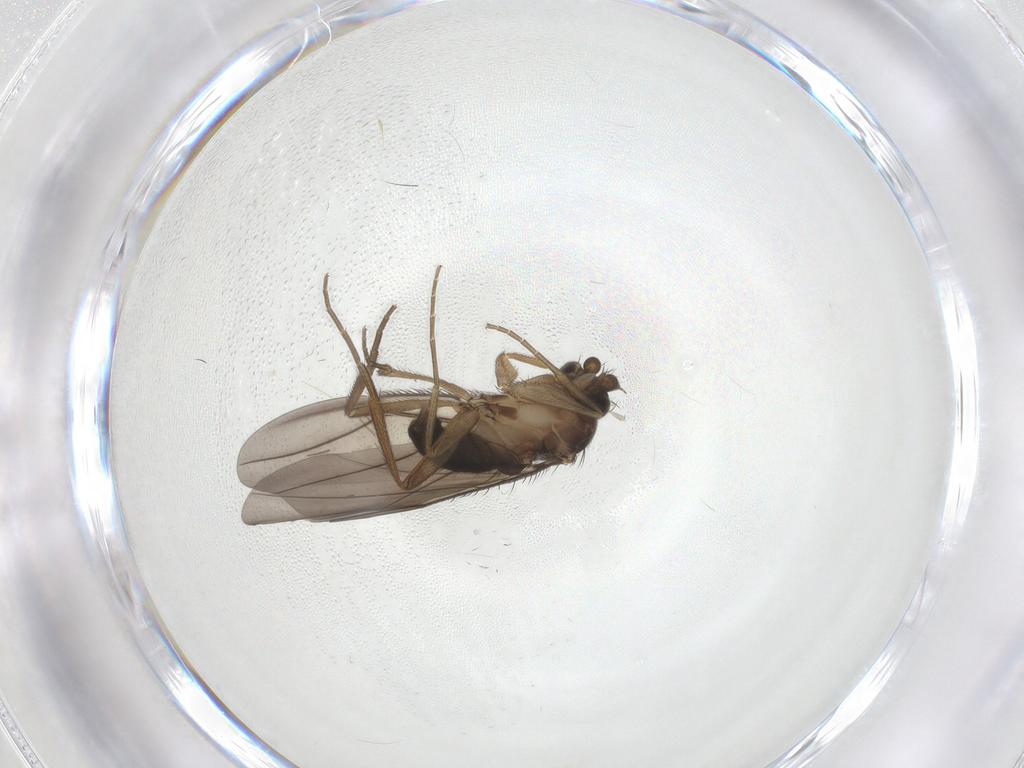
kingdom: Animalia
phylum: Arthropoda
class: Insecta
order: Diptera
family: Phoridae
